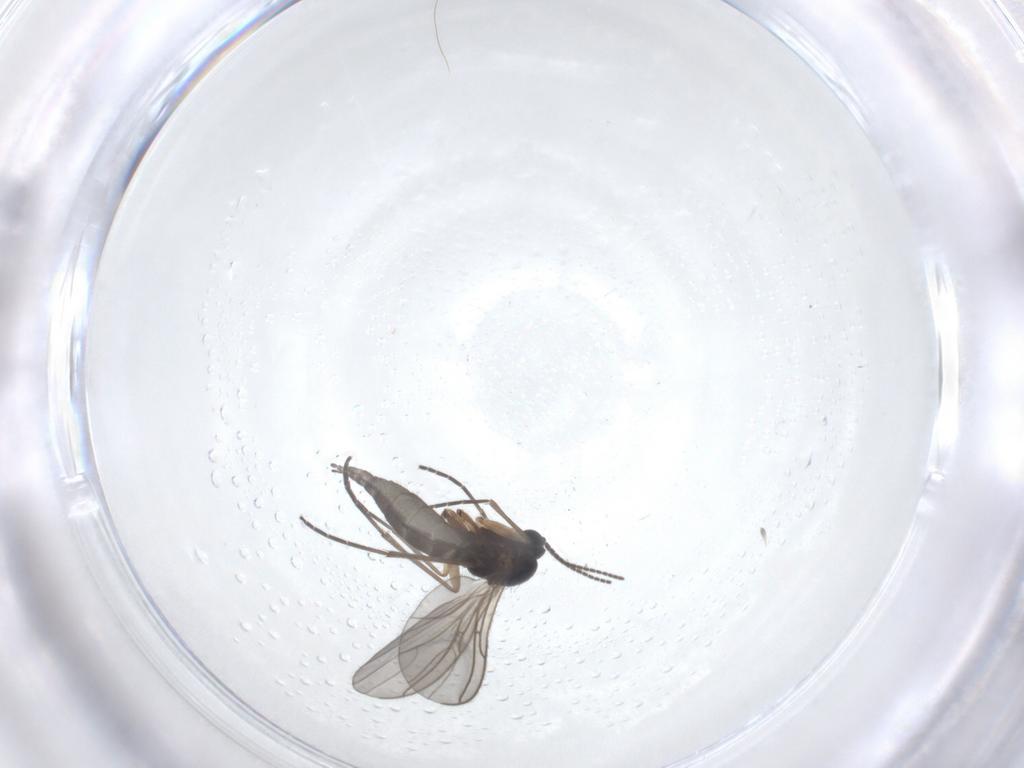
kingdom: Animalia
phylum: Arthropoda
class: Insecta
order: Diptera
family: Sciaridae
